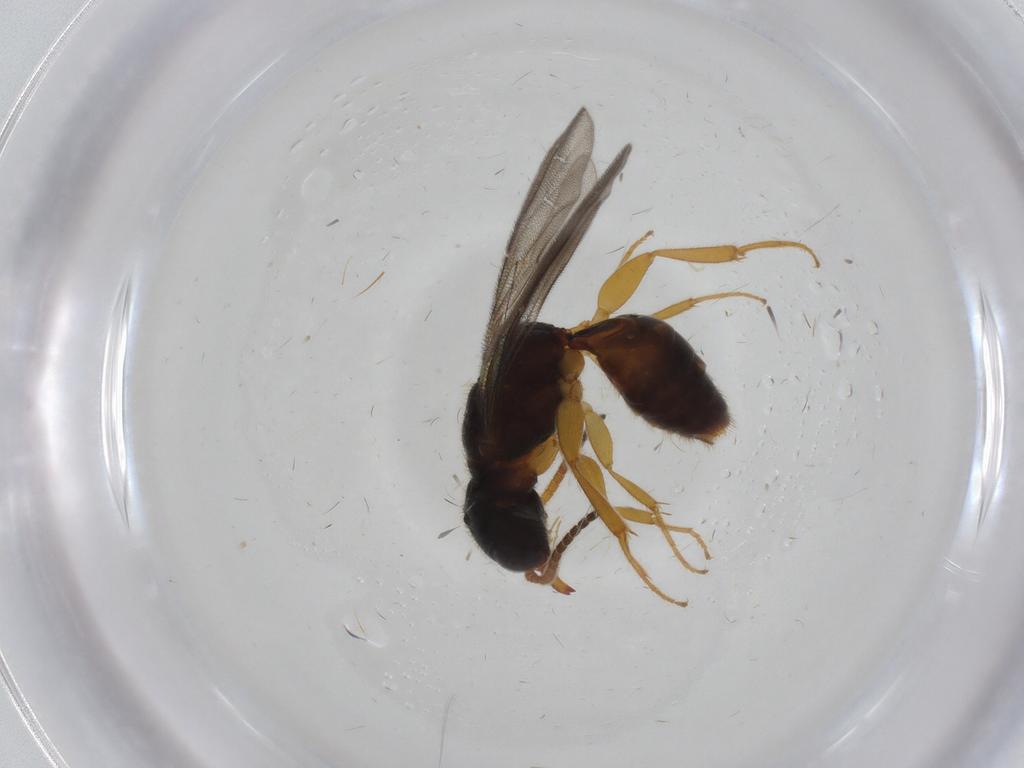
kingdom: Animalia
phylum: Arthropoda
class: Insecta
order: Hymenoptera
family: Bethylidae
